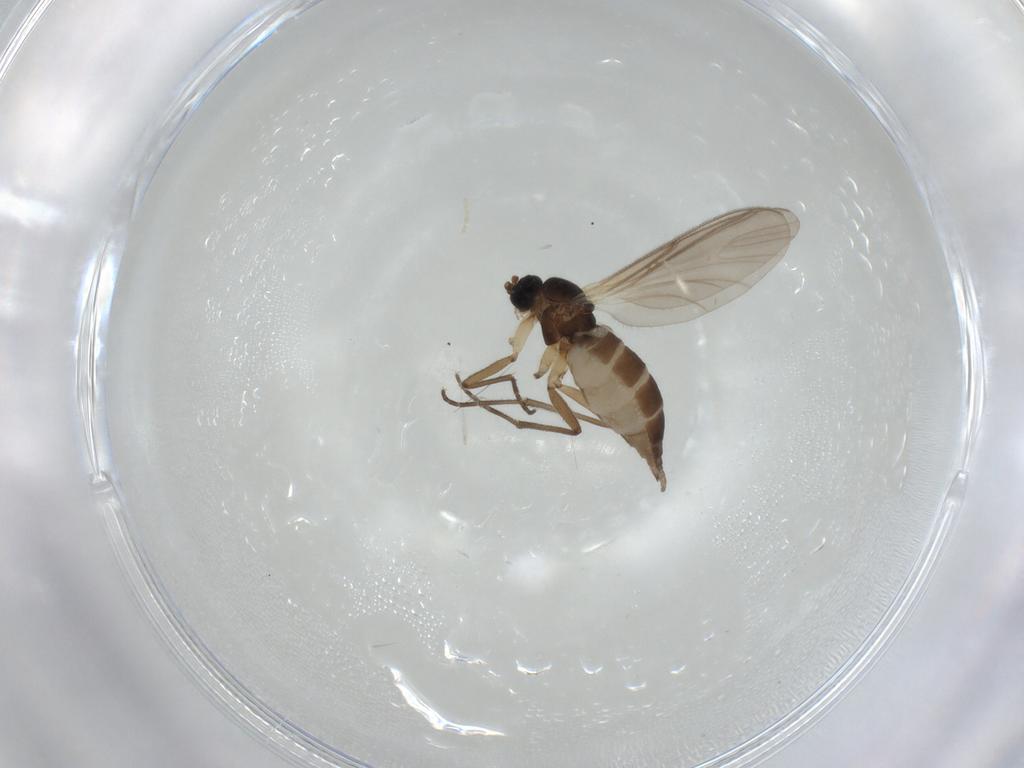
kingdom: Animalia
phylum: Arthropoda
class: Insecta
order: Diptera
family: Sciaridae
